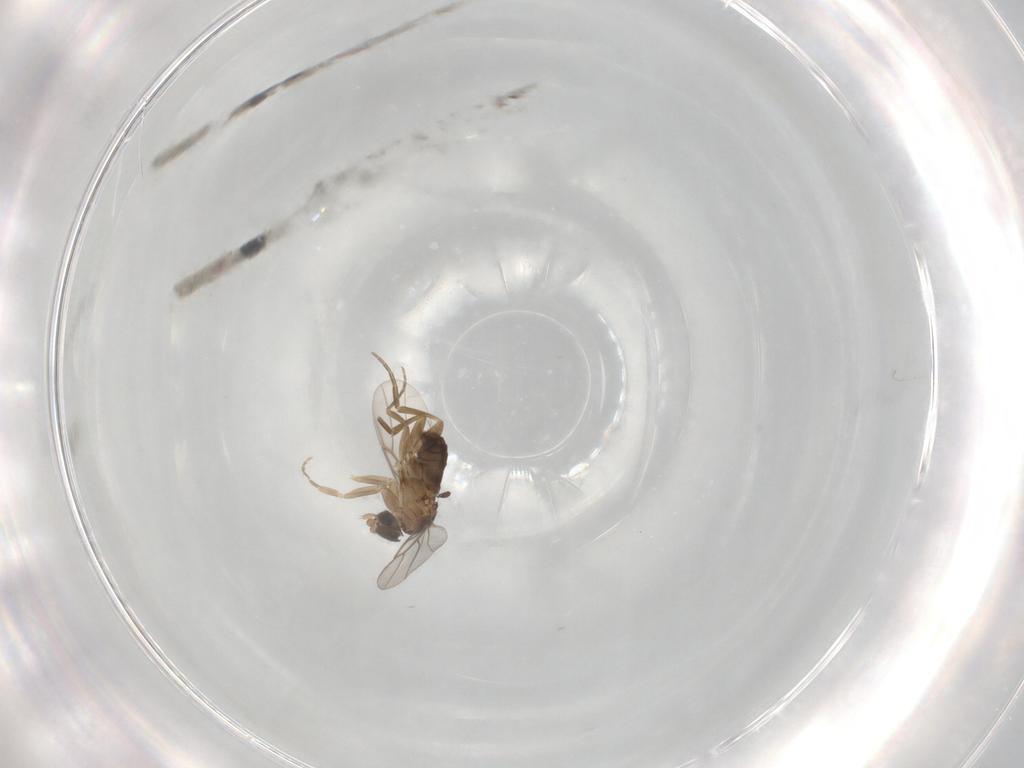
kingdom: Animalia
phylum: Arthropoda
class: Insecta
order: Diptera
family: Phoridae
